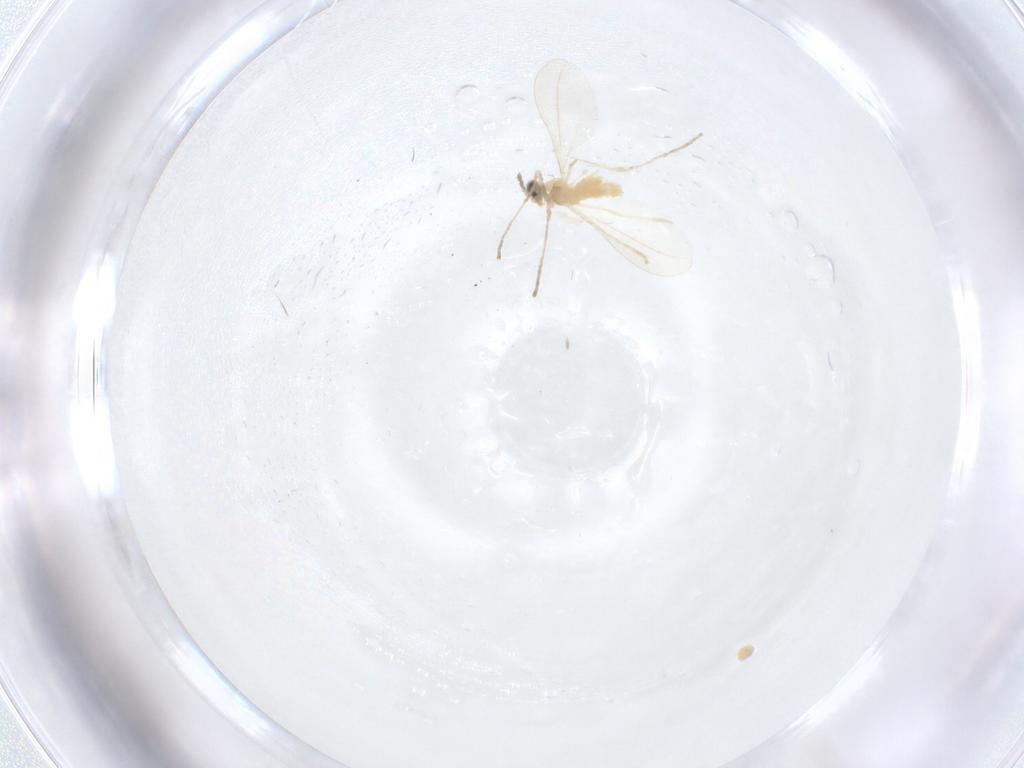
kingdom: Animalia
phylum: Arthropoda
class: Insecta
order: Diptera
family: Cecidomyiidae
